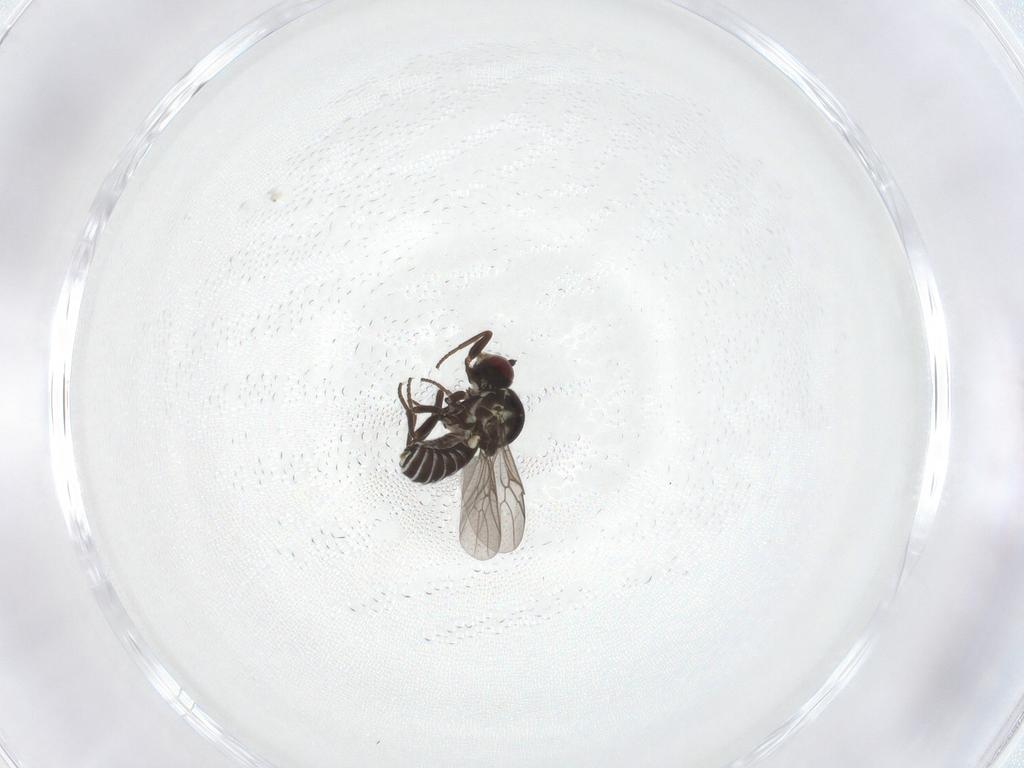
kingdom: Animalia
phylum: Arthropoda
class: Insecta
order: Diptera
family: Bombyliidae
